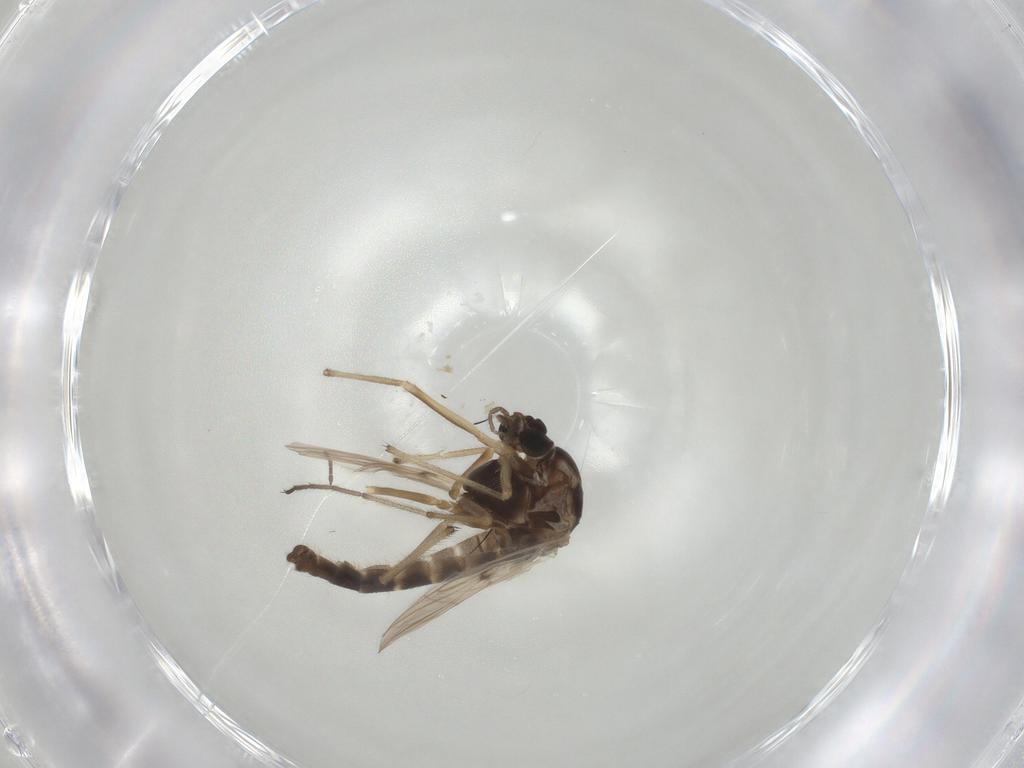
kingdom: Animalia
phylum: Arthropoda
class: Insecta
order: Diptera
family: Chironomidae
